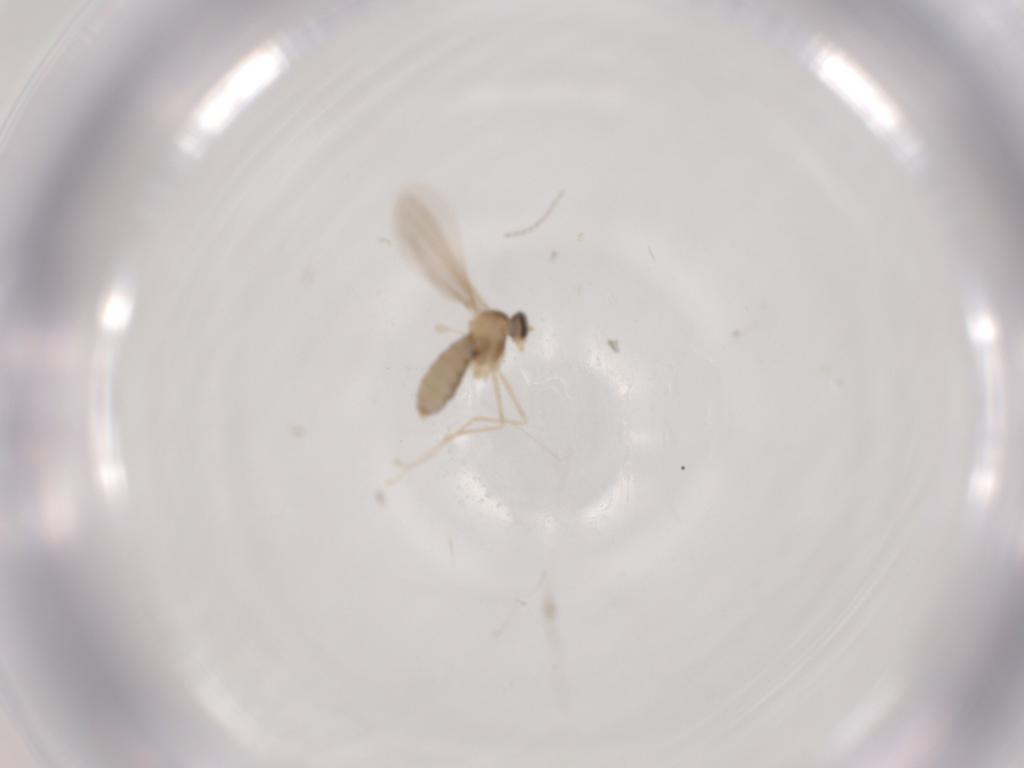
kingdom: Animalia
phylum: Arthropoda
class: Insecta
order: Diptera
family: Cecidomyiidae
